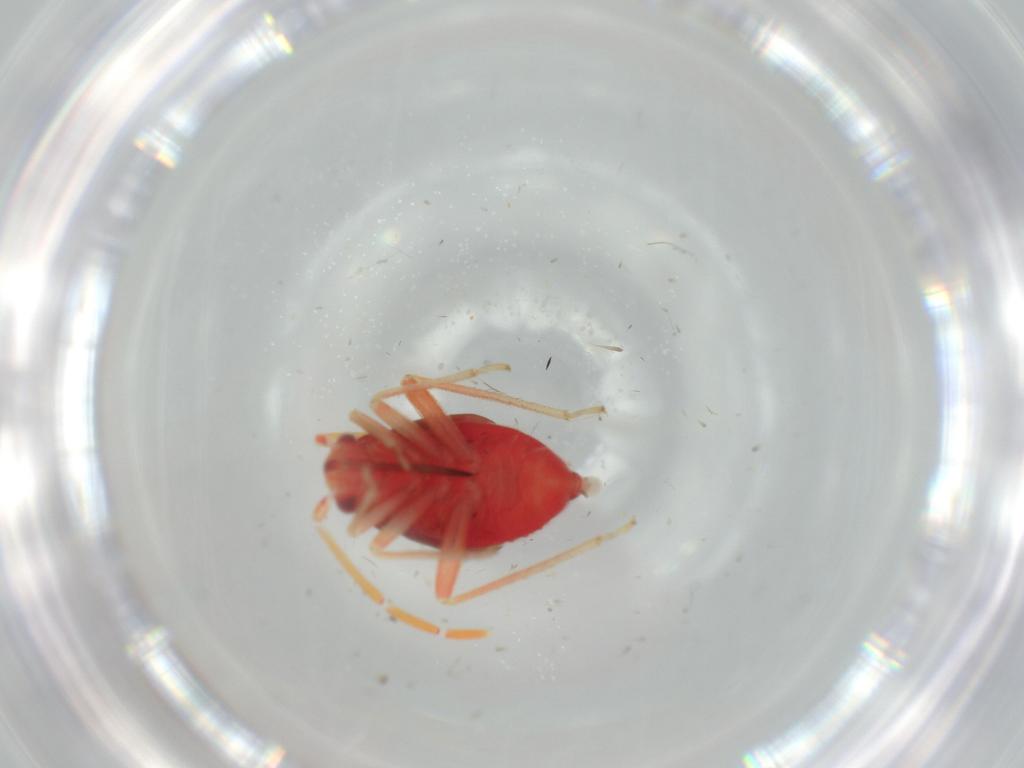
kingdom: Animalia
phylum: Arthropoda
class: Insecta
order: Hemiptera
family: Miridae
